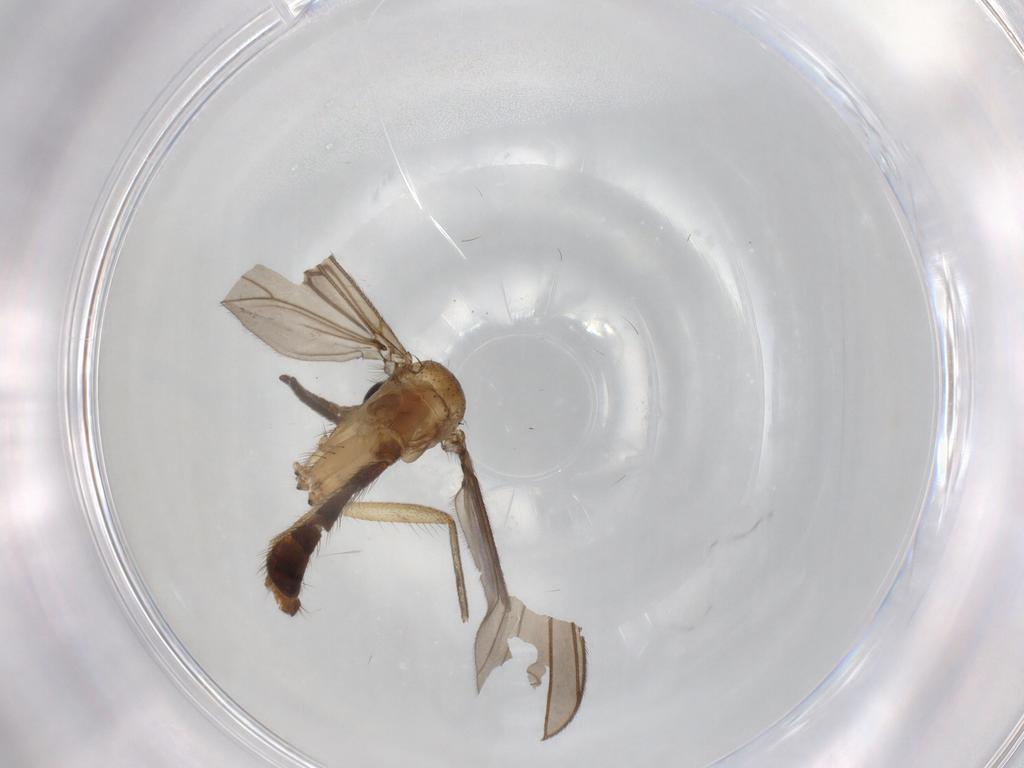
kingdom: Animalia
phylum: Arthropoda
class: Insecta
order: Diptera
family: Mycetophilidae
